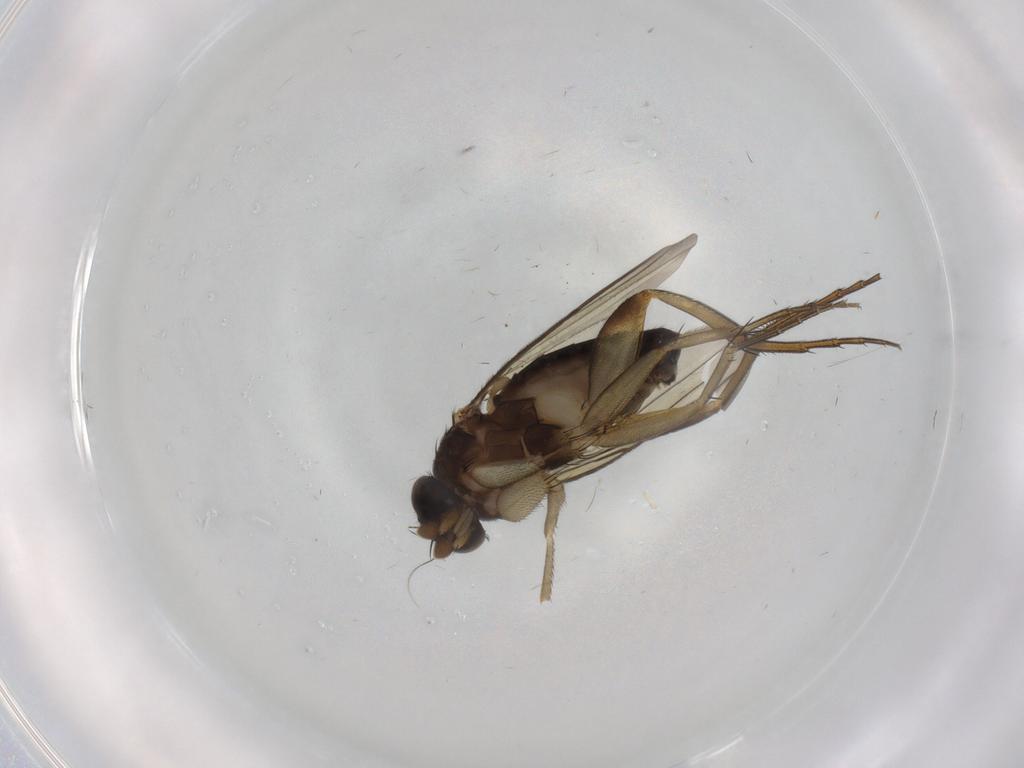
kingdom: Animalia
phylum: Arthropoda
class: Insecta
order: Diptera
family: Phoridae
